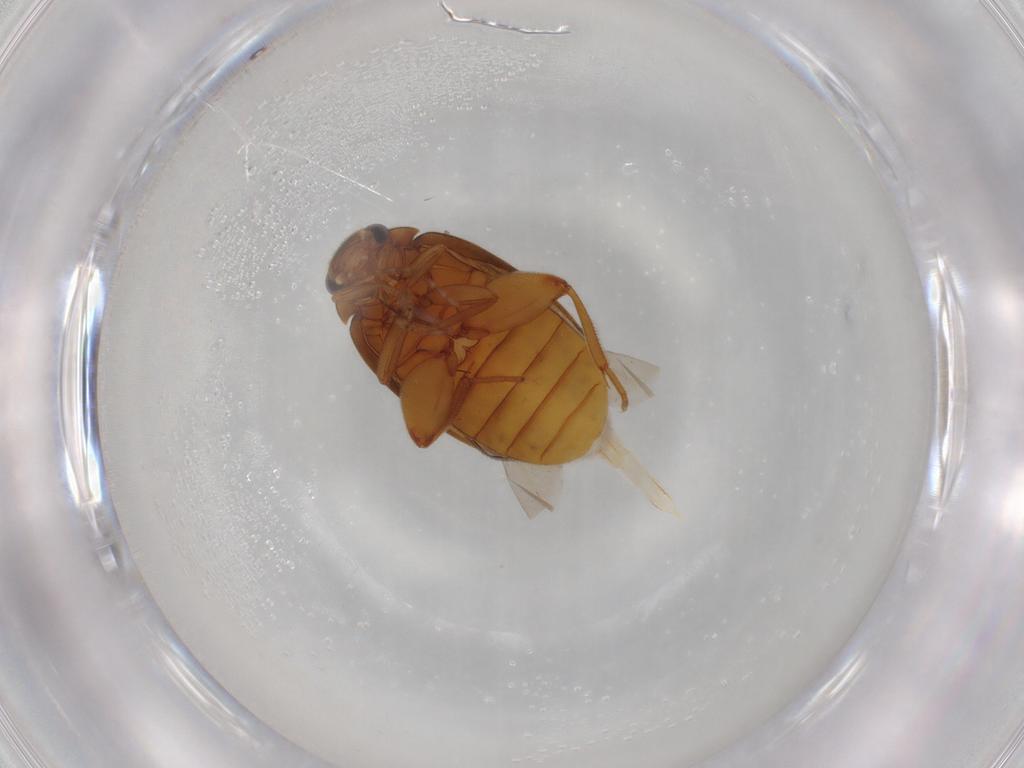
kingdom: Animalia
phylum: Arthropoda
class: Insecta
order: Coleoptera
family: Scirtidae
